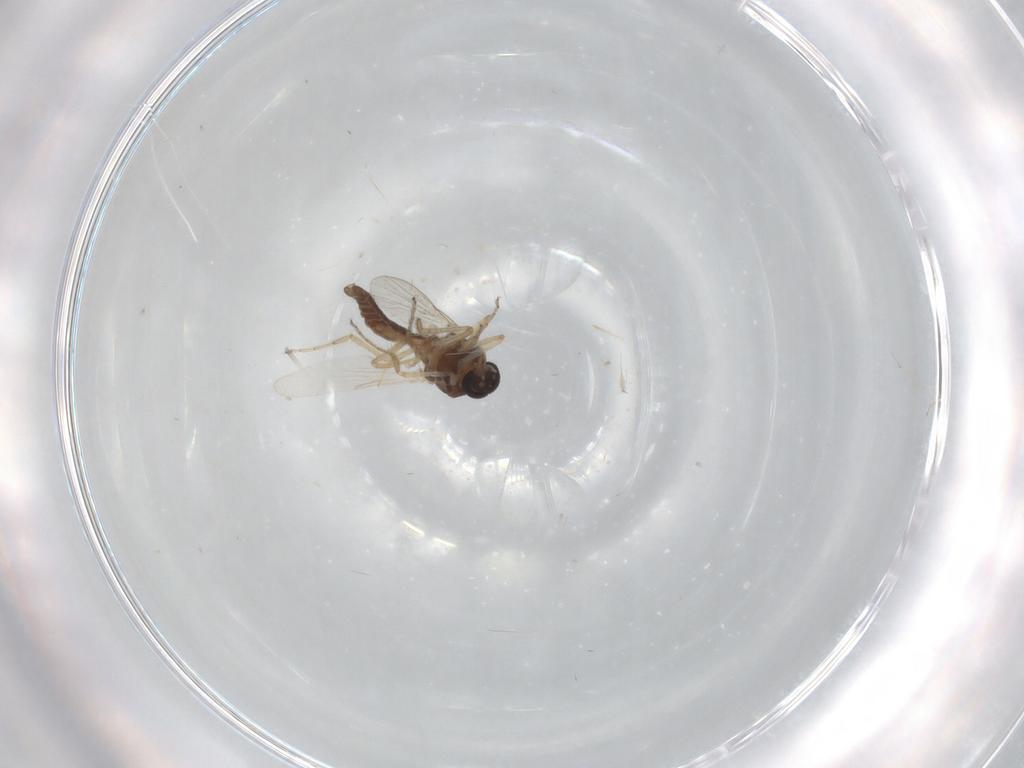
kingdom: Animalia
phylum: Arthropoda
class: Insecta
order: Diptera
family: Ceratopogonidae
